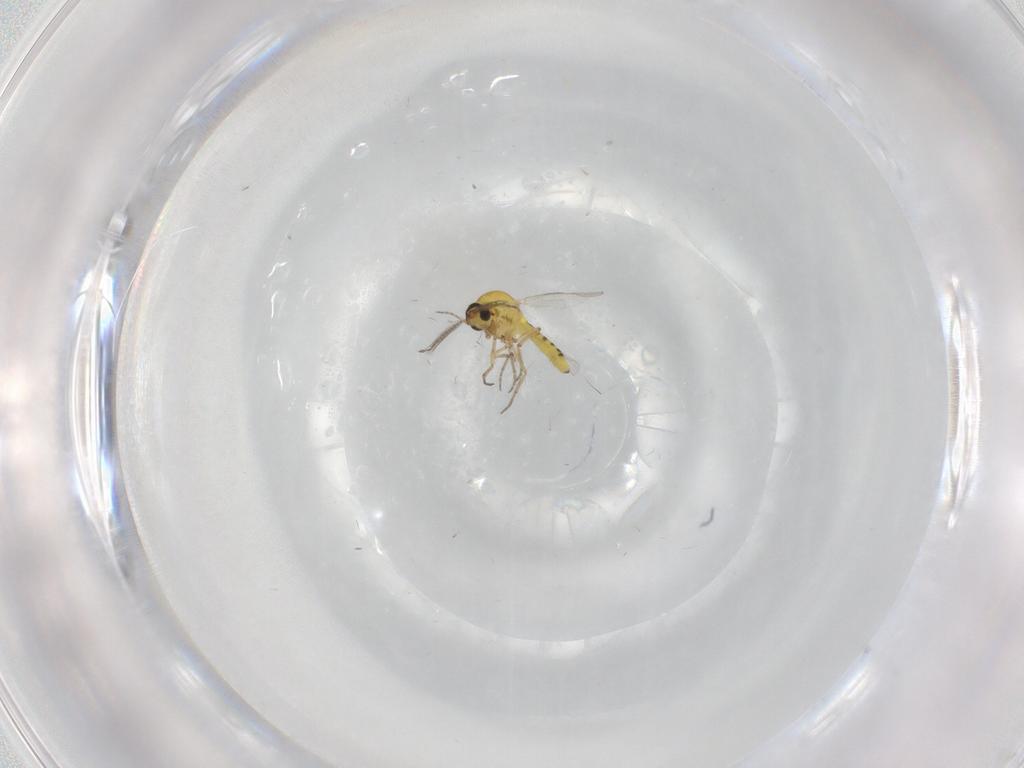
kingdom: Animalia
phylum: Arthropoda
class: Insecta
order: Diptera
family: Ceratopogonidae
